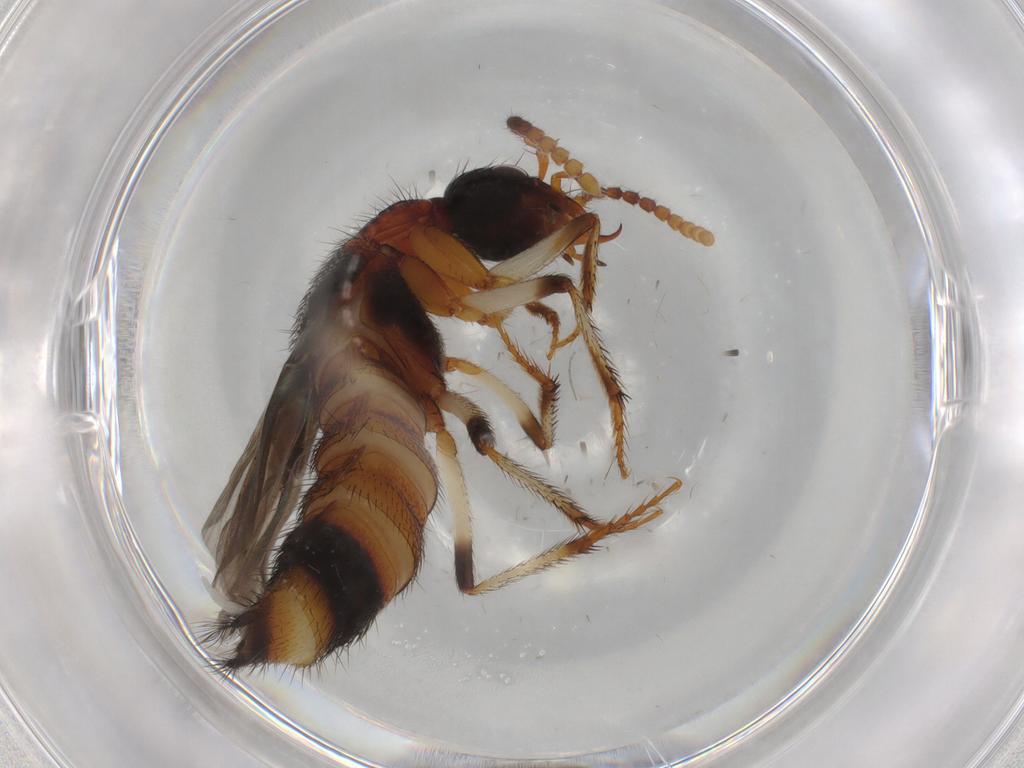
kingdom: Animalia
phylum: Arthropoda
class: Insecta
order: Coleoptera
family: Staphylinidae
